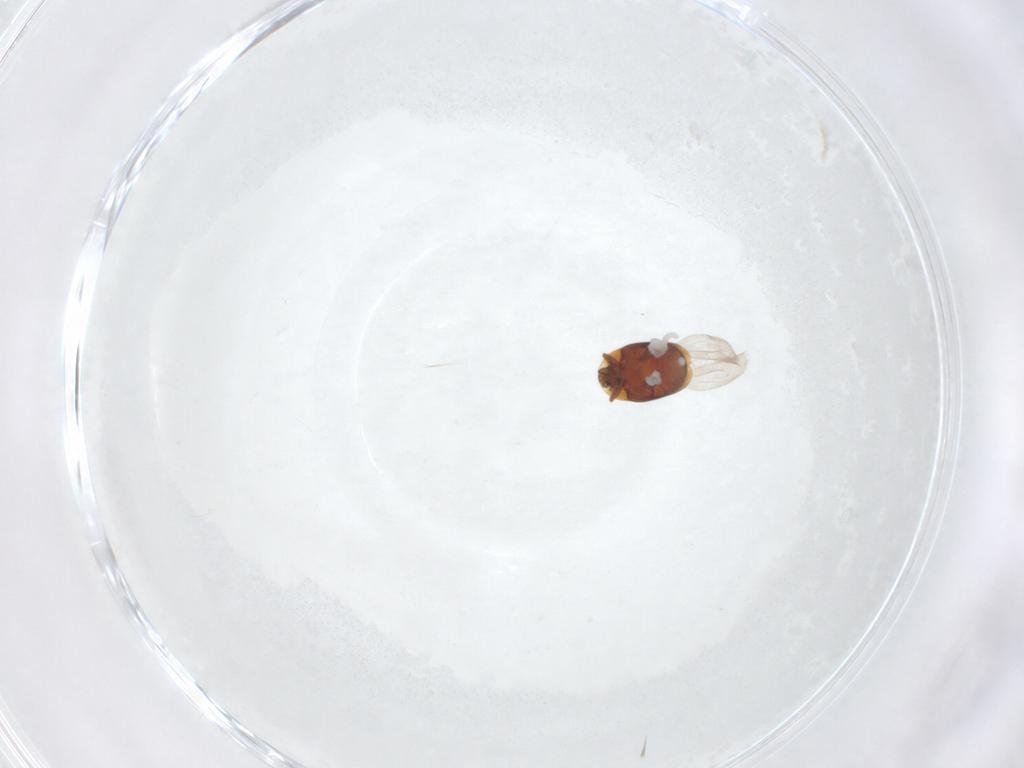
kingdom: Animalia
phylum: Arthropoda
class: Insecta
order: Coleoptera
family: Corylophidae
